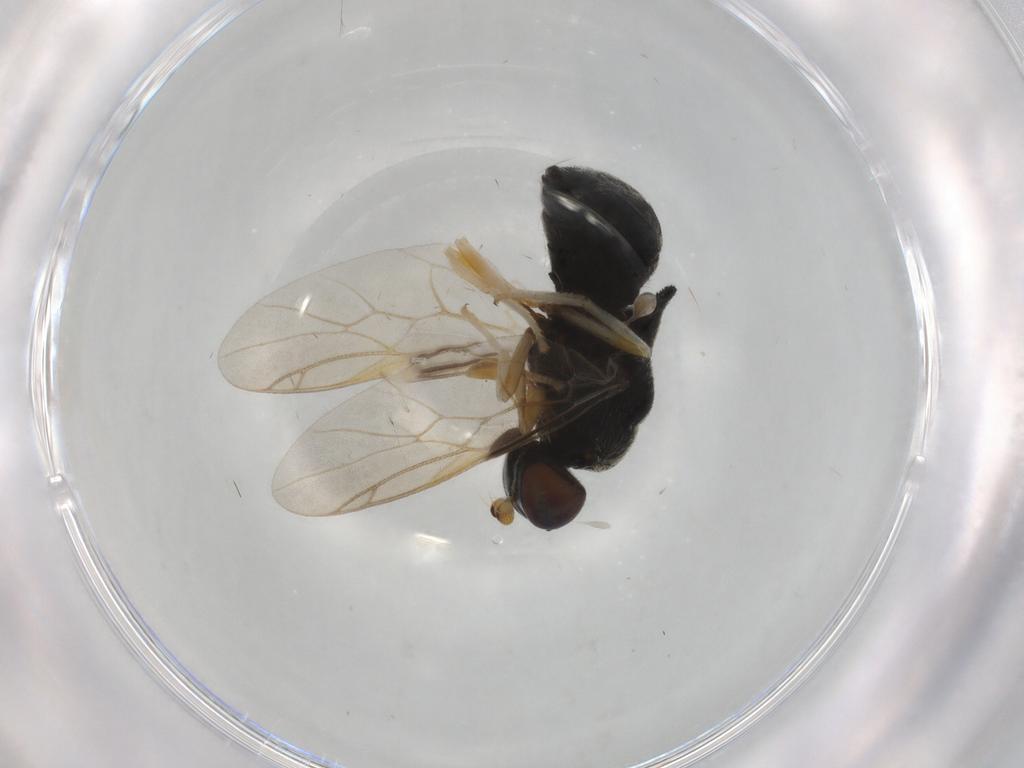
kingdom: Animalia
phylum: Arthropoda
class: Insecta
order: Diptera
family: Stratiomyidae
